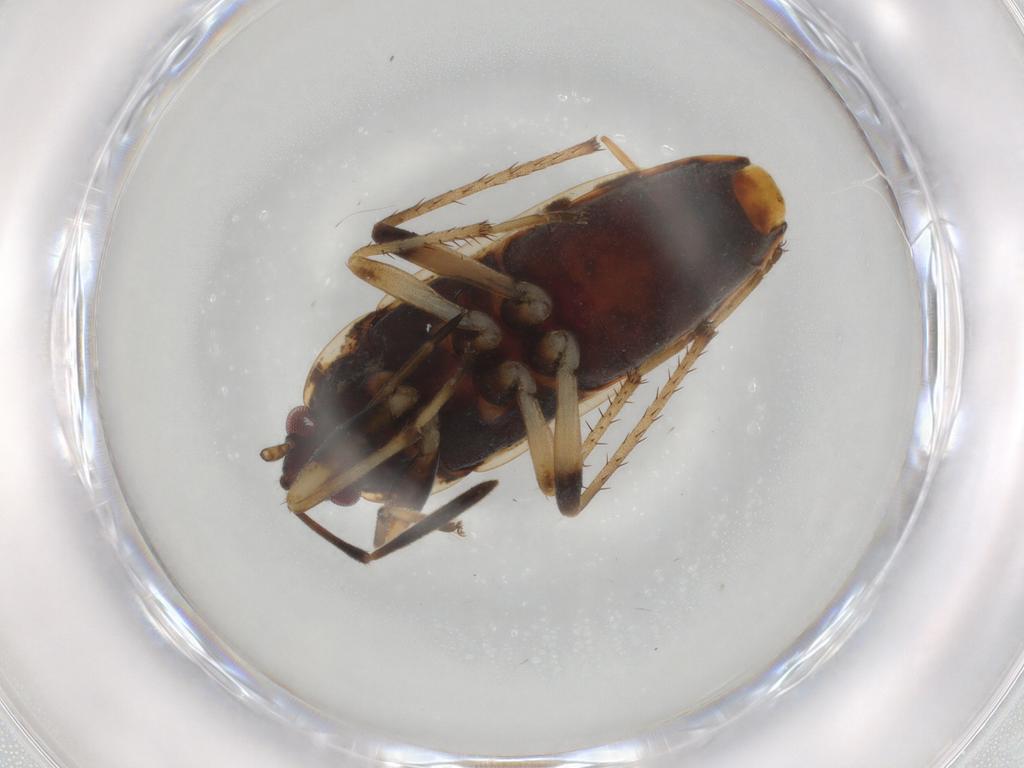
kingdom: Animalia
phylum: Arthropoda
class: Insecta
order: Hemiptera
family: Rhyparochromidae
